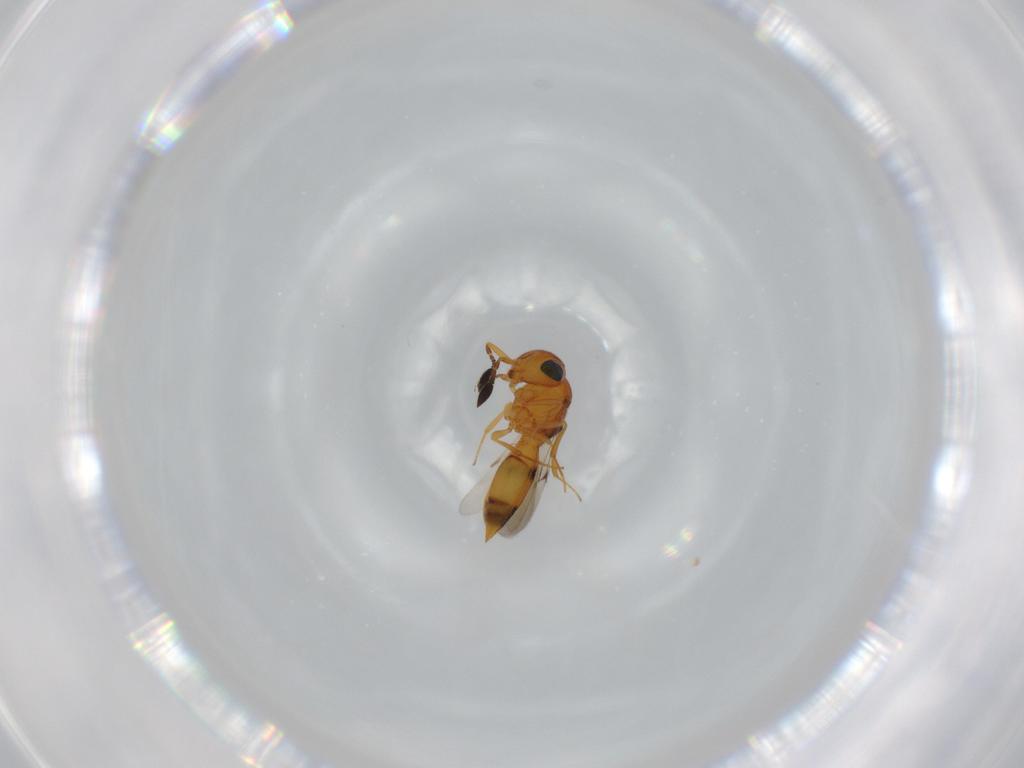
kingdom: Animalia
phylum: Arthropoda
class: Insecta
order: Hymenoptera
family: Scelionidae
